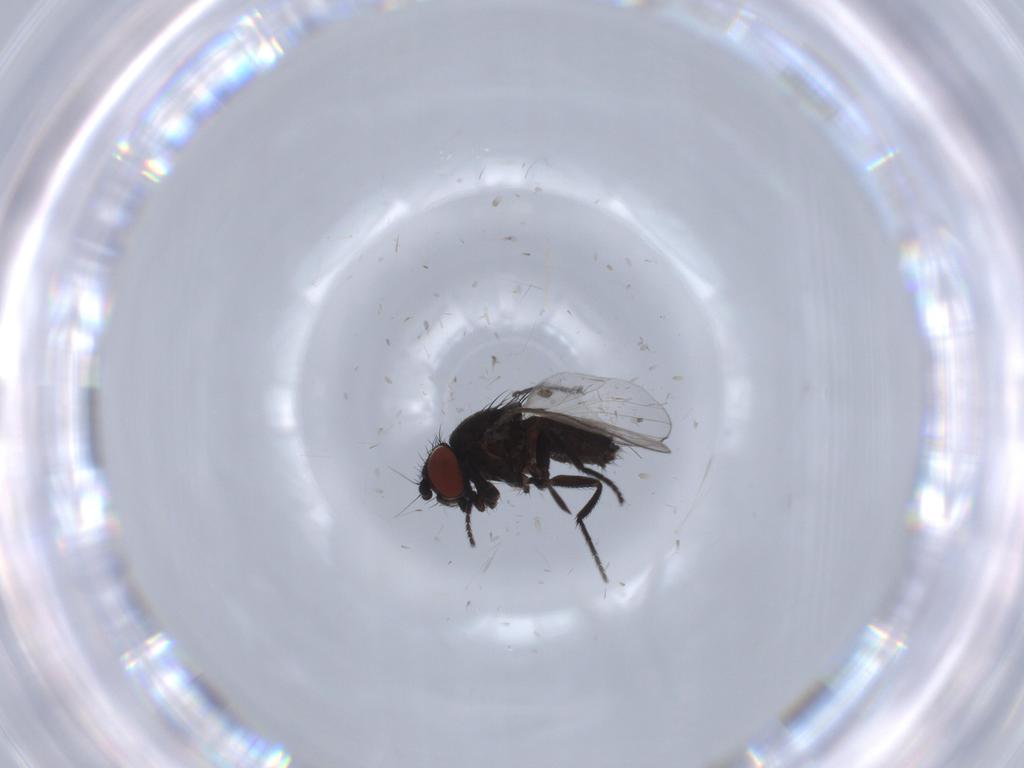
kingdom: Animalia
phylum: Arthropoda
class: Insecta
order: Diptera
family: Milichiidae
